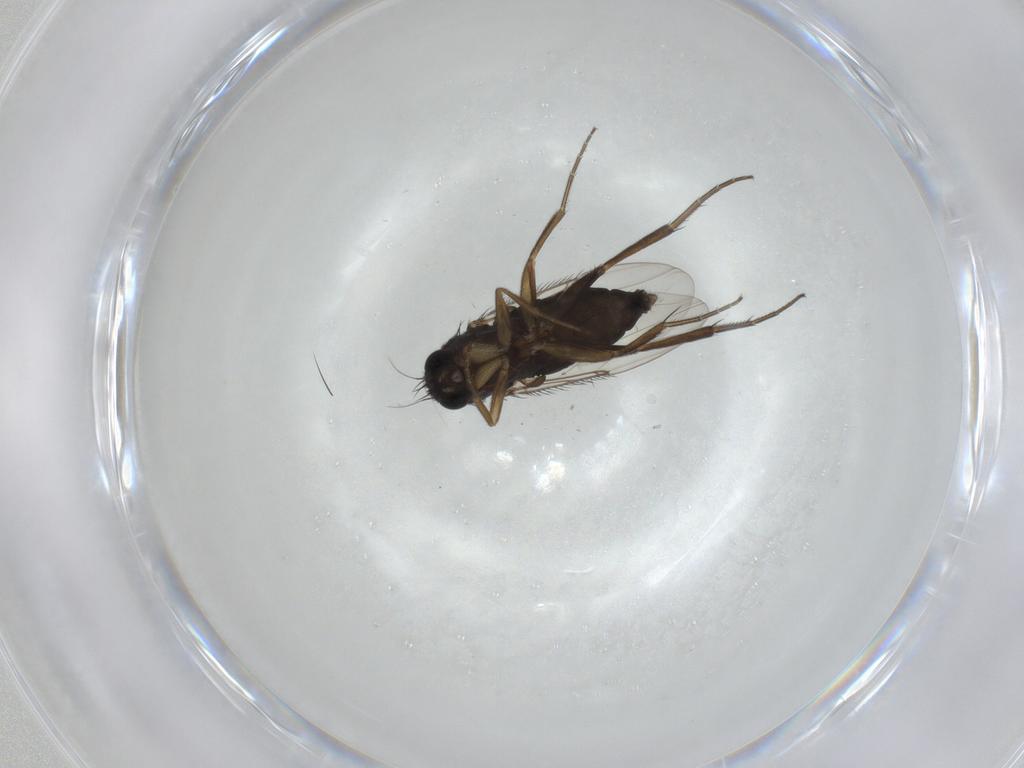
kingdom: Animalia
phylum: Arthropoda
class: Insecta
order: Diptera
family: Phoridae
